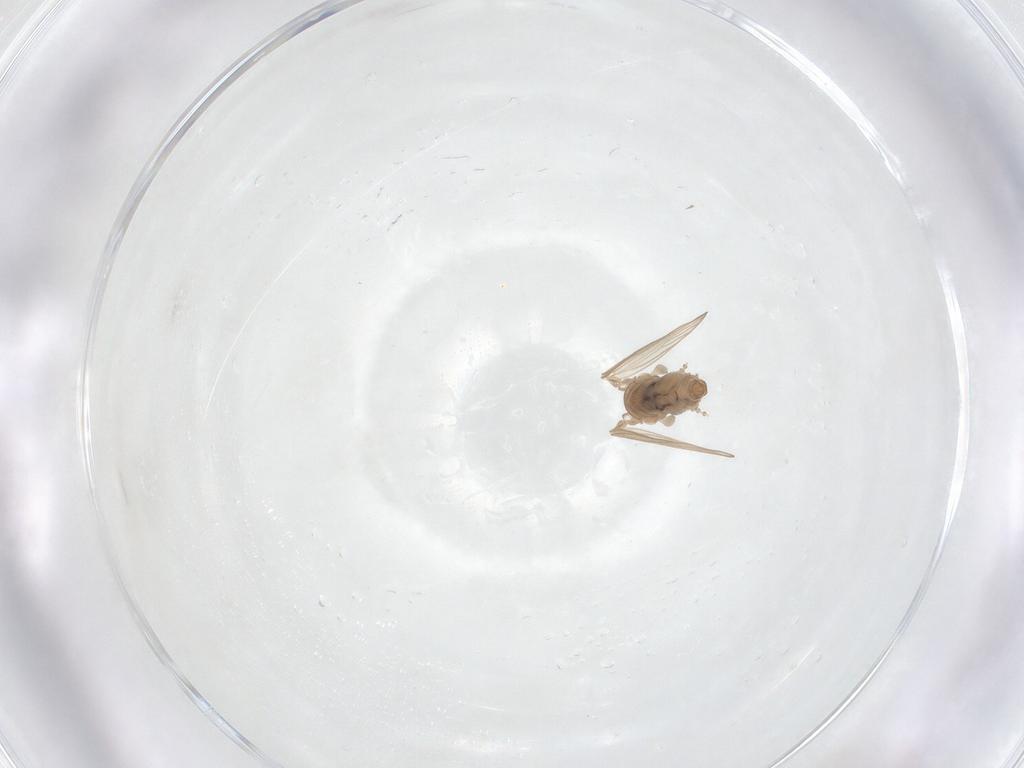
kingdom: Animalia
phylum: Arthropoda
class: Insecta
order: Diptera
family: Psychodidae
